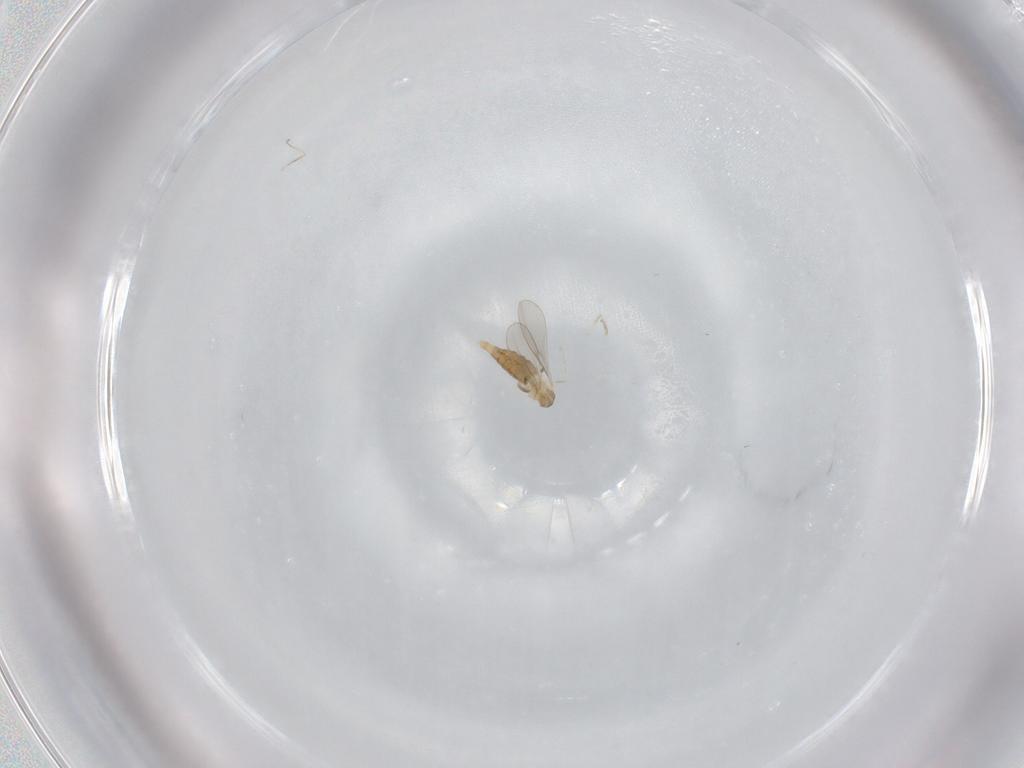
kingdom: Animalia
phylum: Arthropoda
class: Insecta
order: Diptera
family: Cecidomyiidae
